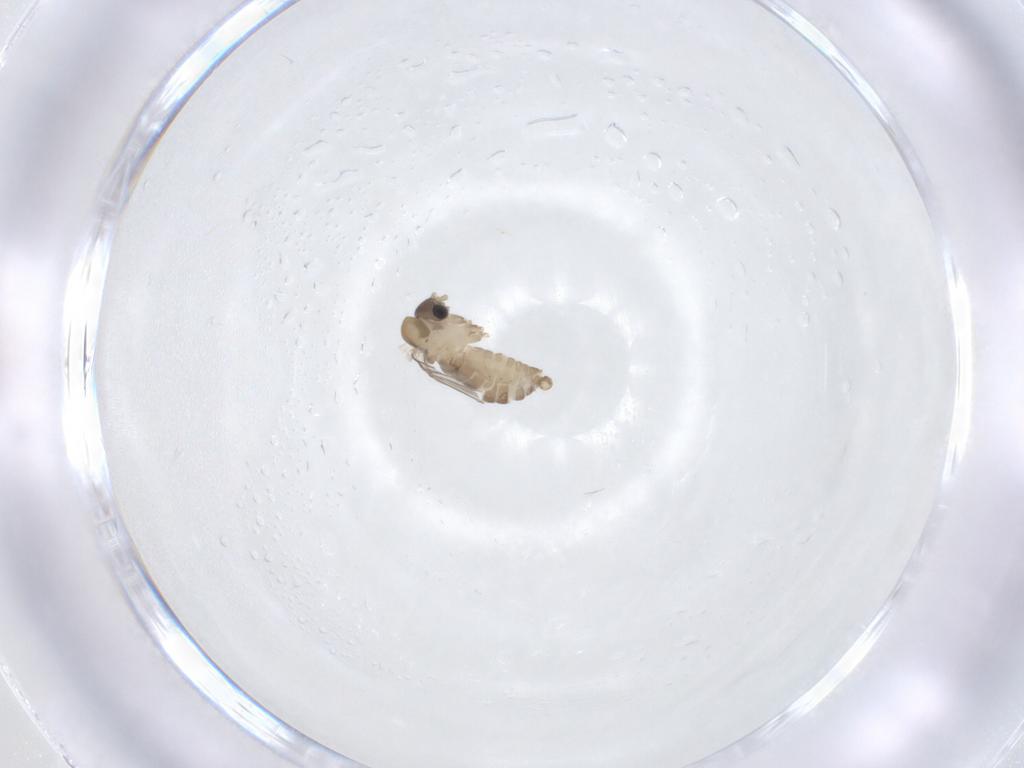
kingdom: Animalia
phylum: Arthropoda
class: Insecta
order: Diptera
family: Psychodidae
